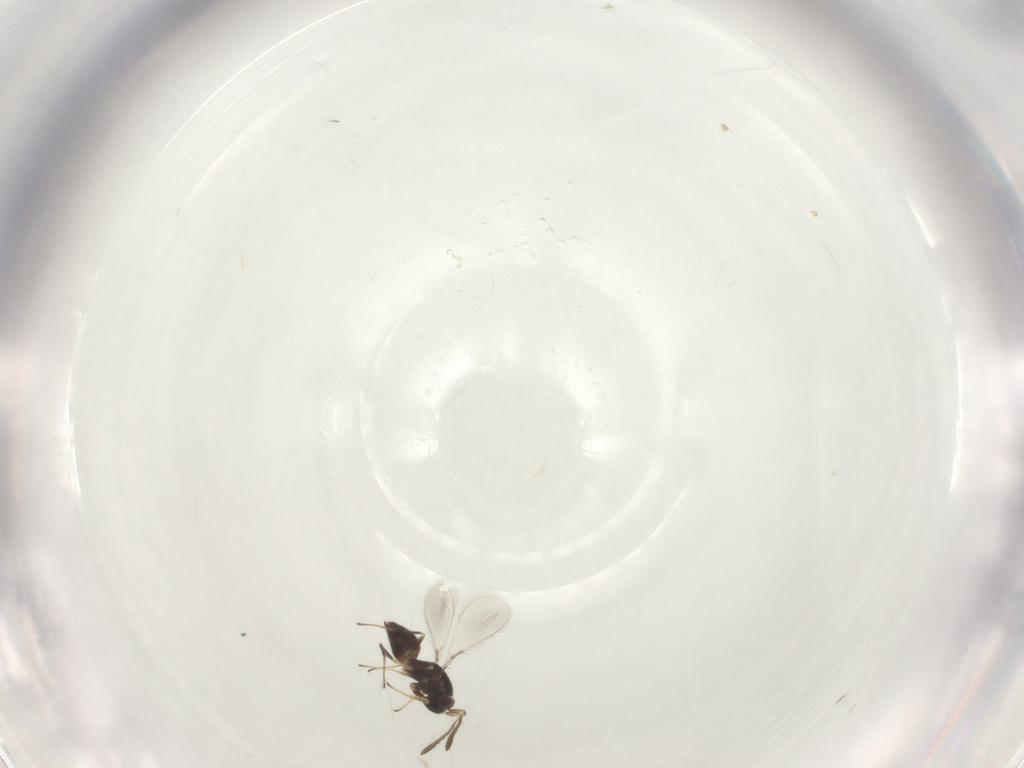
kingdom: Animalia
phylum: Arthropoda
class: Insecta
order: Hymenoptera
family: Mymaridae
